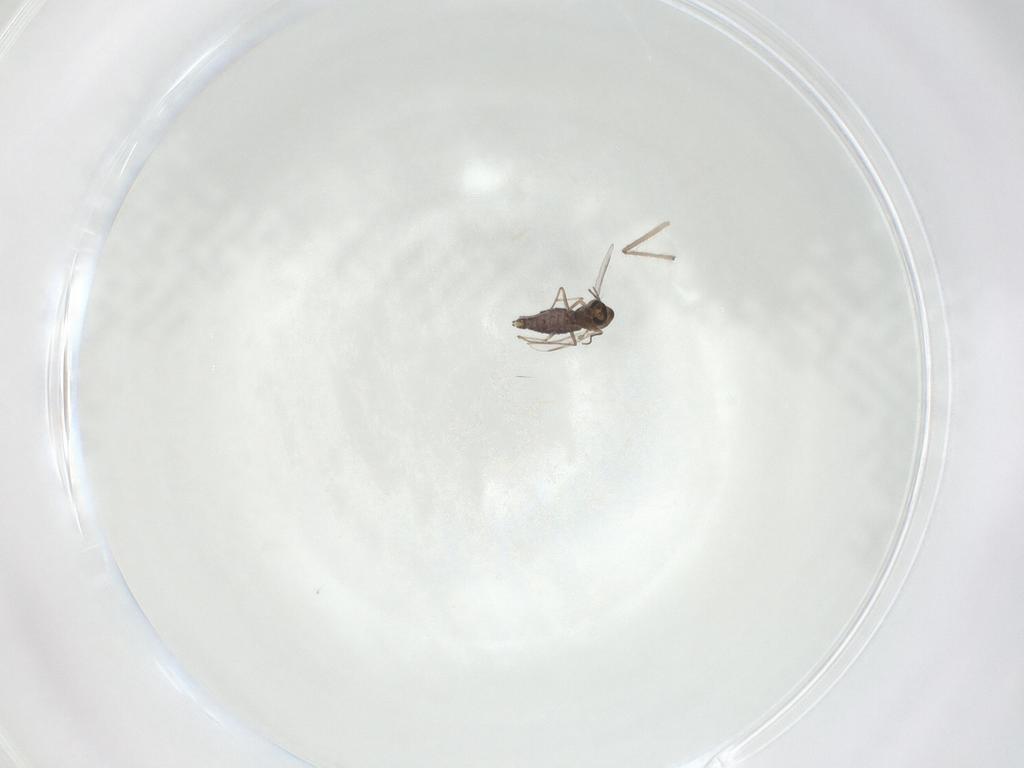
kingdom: Animalia
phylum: Arthropoda
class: Insecta
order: Diptera
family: Chironomidae
